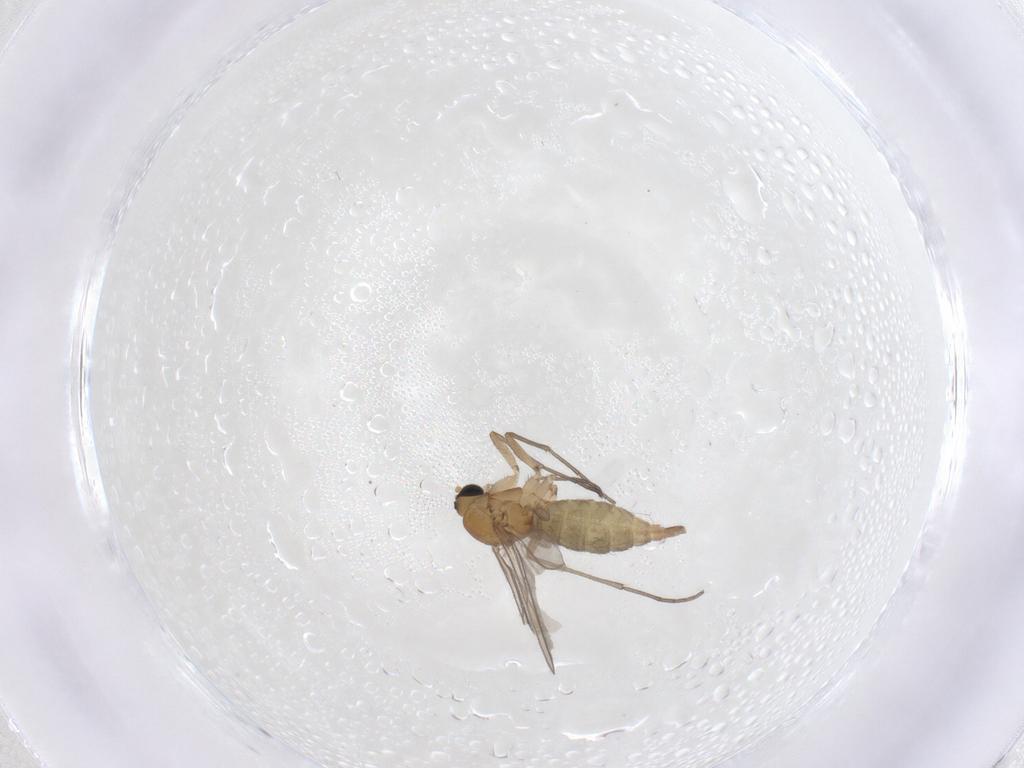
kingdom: Animalia
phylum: Arthropoda
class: Insecta
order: Diptera
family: Sciaridae
